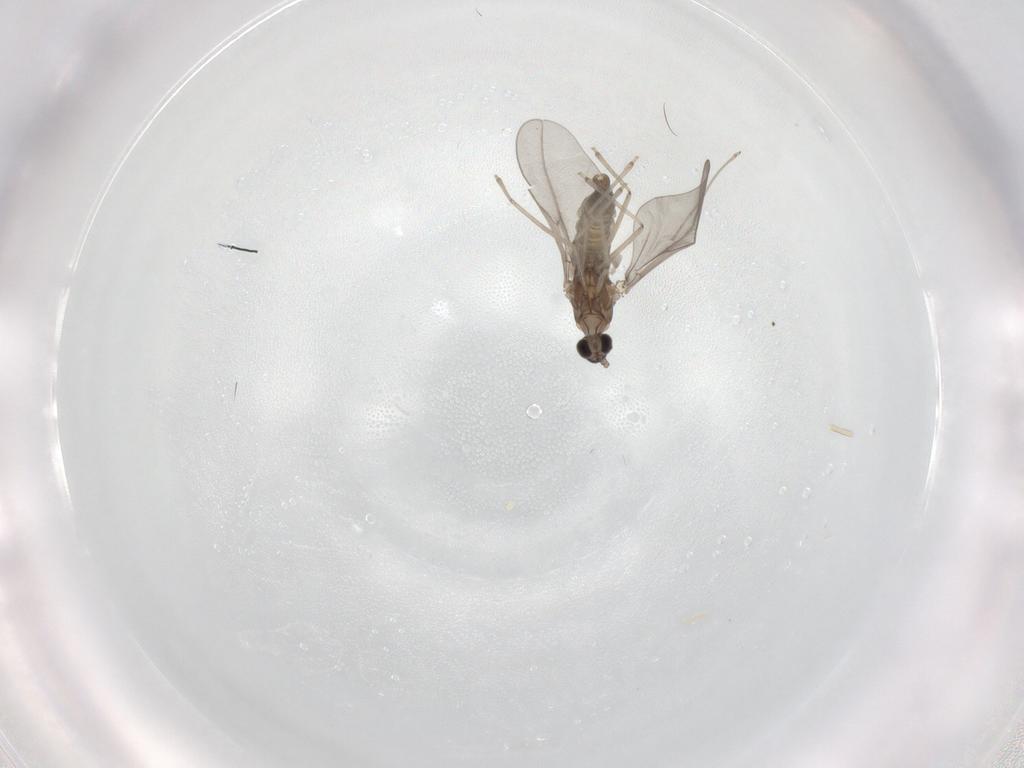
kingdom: Animalia
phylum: Arthropoda
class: Insecta
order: Diptera
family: Cecidomyiidae
